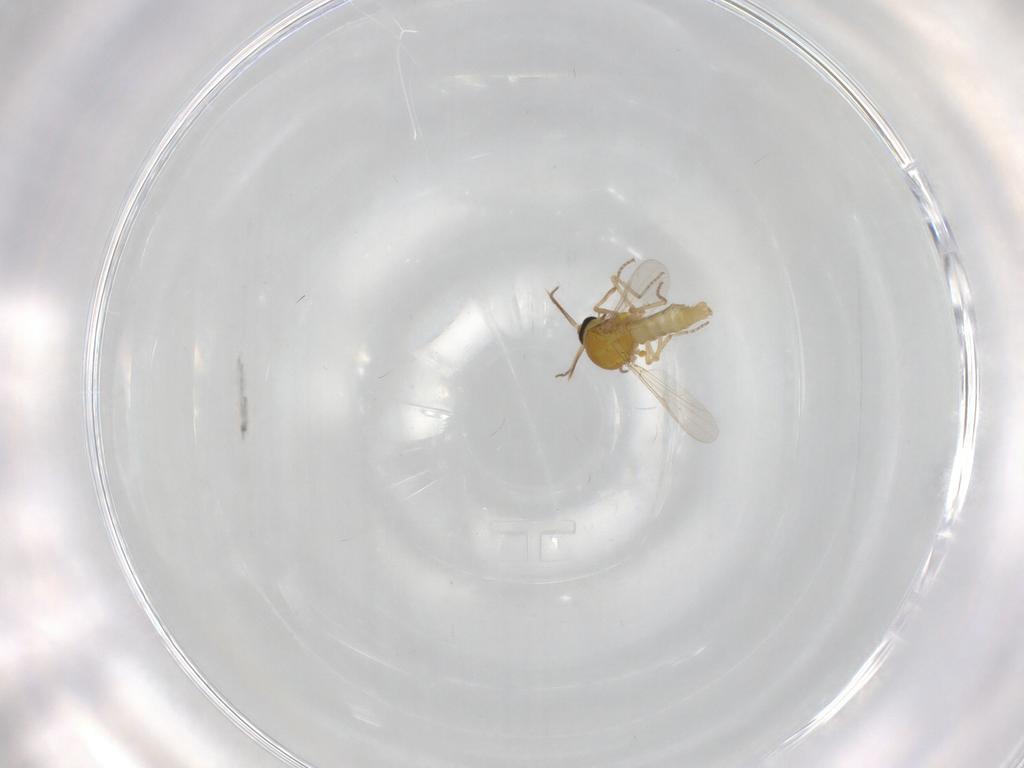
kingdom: Animalia
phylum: Arthropoda
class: Insecta
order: Diptera
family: Ceratopogonidae
